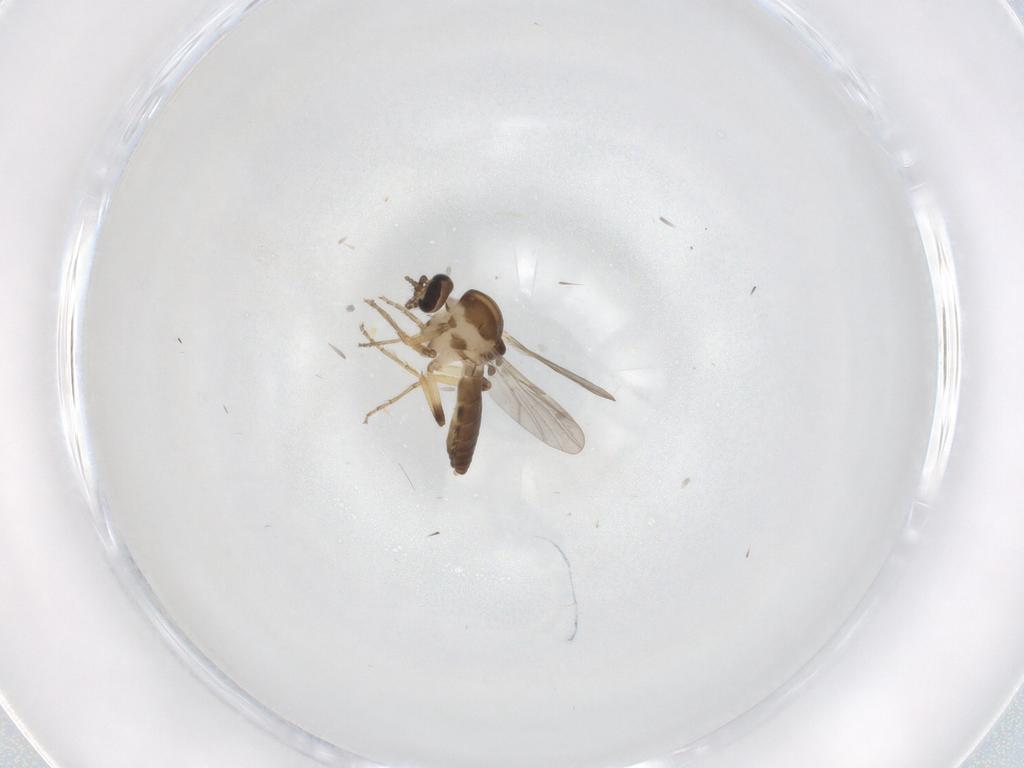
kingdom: Animalia
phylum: Arthropoda
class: Insecta
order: Diptera
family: Ceratopogonidae
